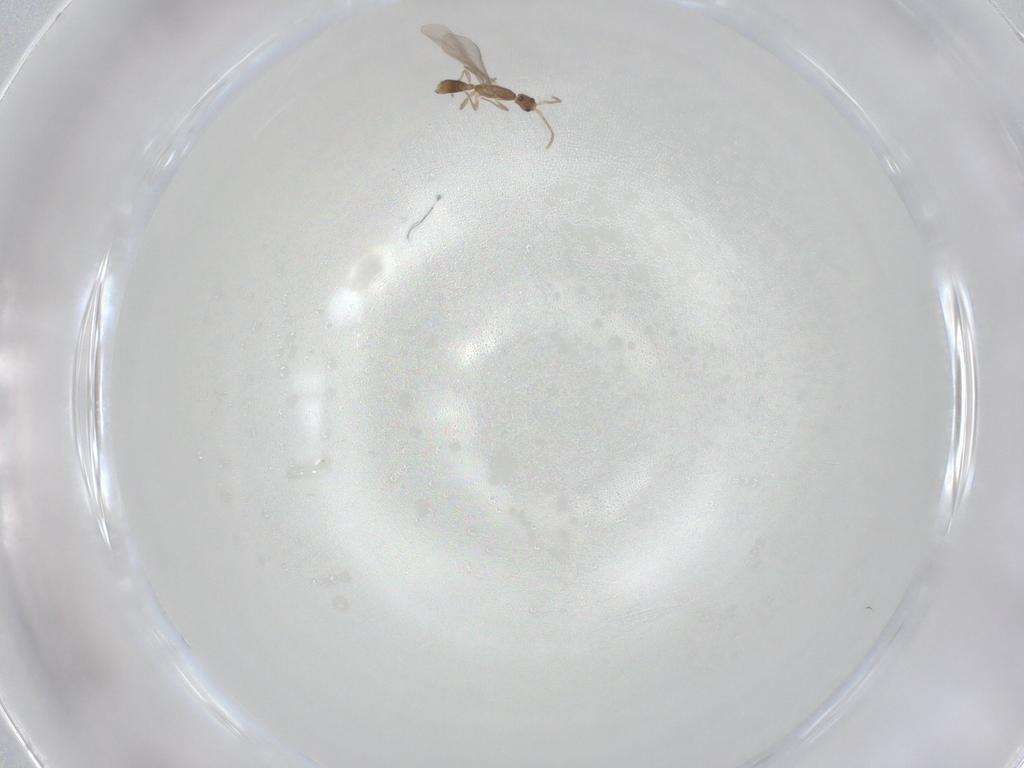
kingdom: Animalia
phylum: Arthropoda
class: Insecta
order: Hymenoptera
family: Formicidae
